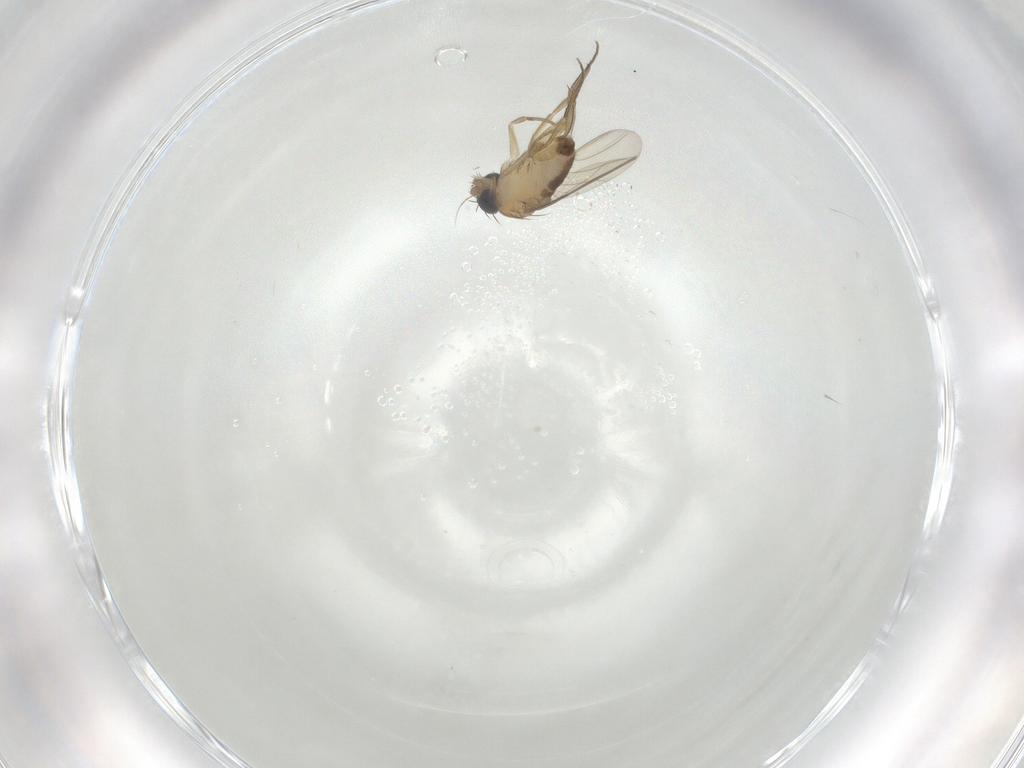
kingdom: Animalia
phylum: Arthropoda
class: Insecta
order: Diptera
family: Phoridae
